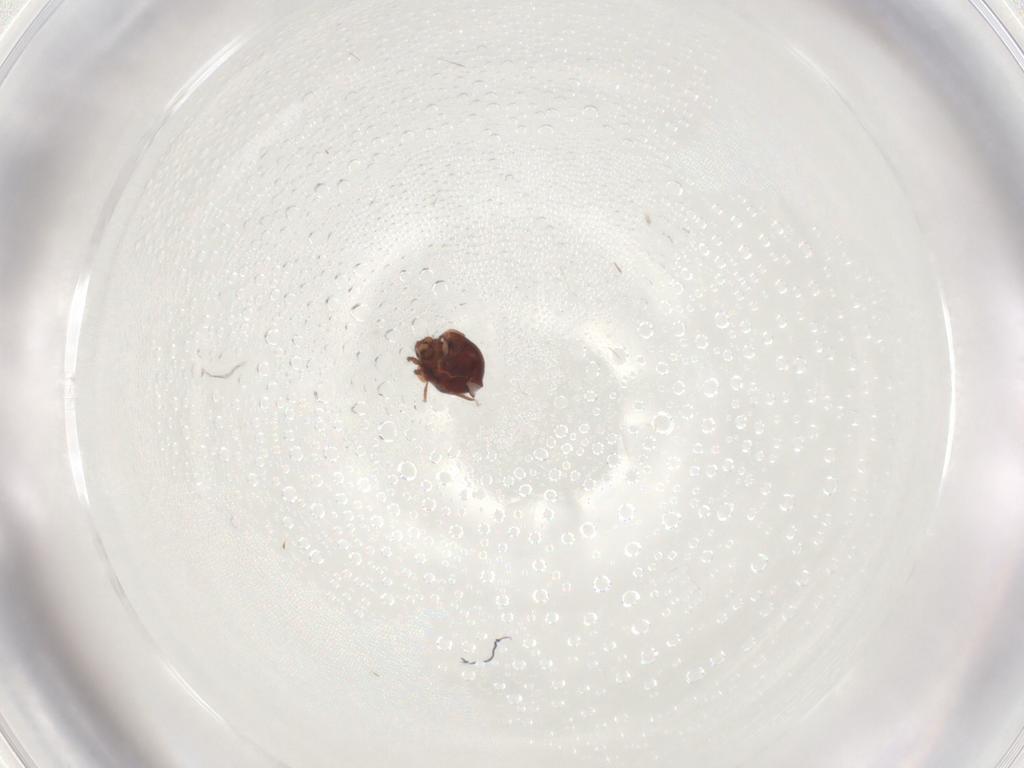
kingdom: Animalia
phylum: Arthropoda
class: Arachnida
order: Sarcoptiformes
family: Humerobatidae
